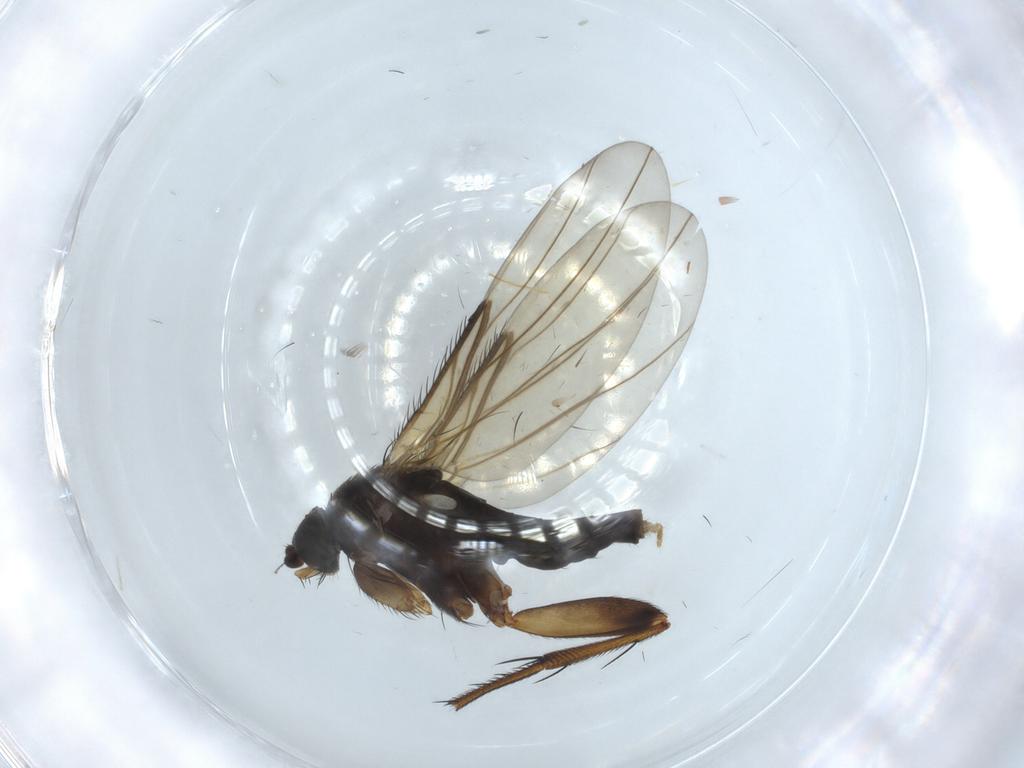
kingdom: Animalia
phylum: Arthropoda
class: Insecta
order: Diptera
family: Phoridae
